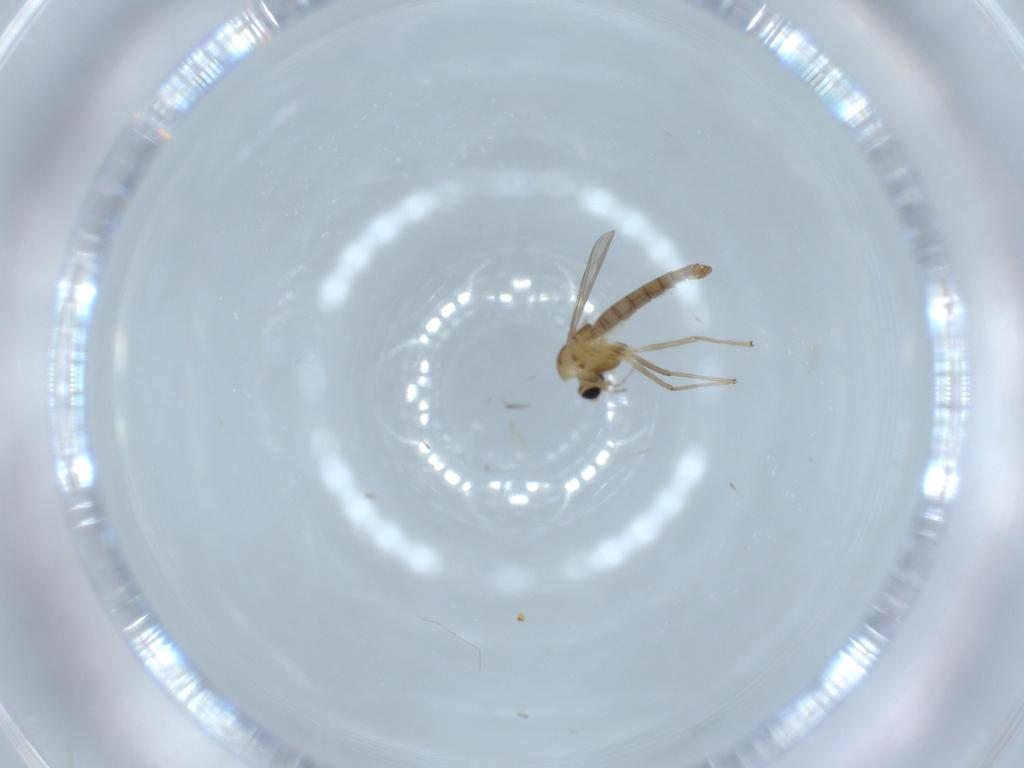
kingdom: Animalia
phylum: Arthropoda
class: Insecta
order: Diptera
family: Chironomidae
